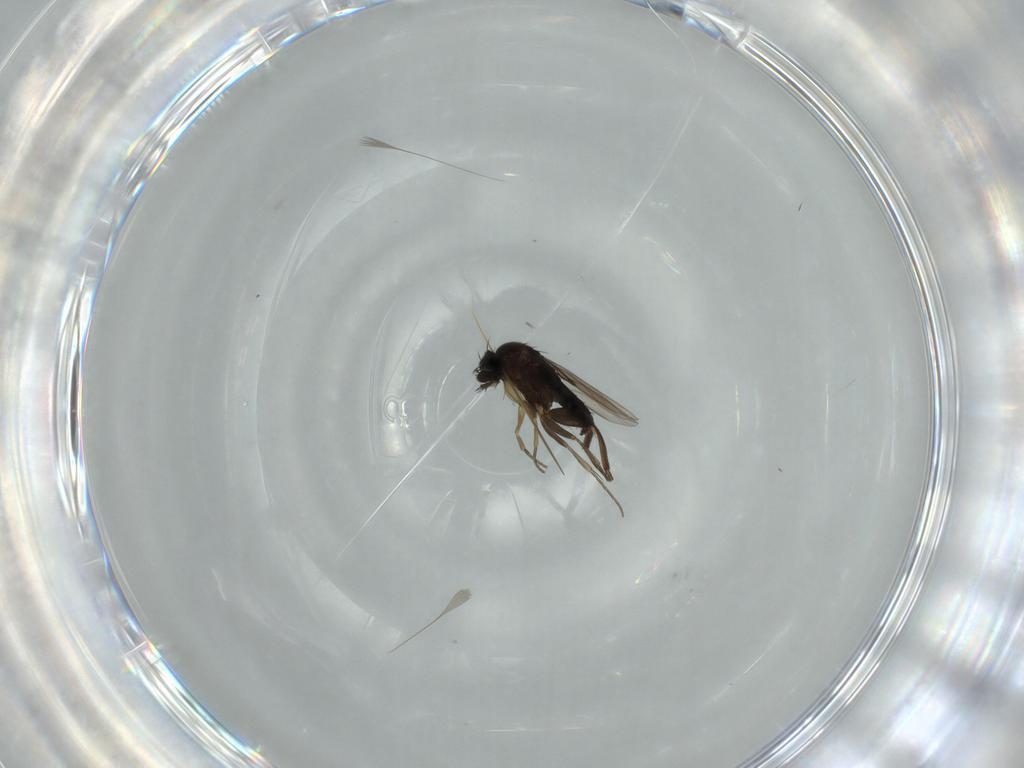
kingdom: Animalia
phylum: Arthropoda
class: Insecta
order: Diptera
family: Phoridae
